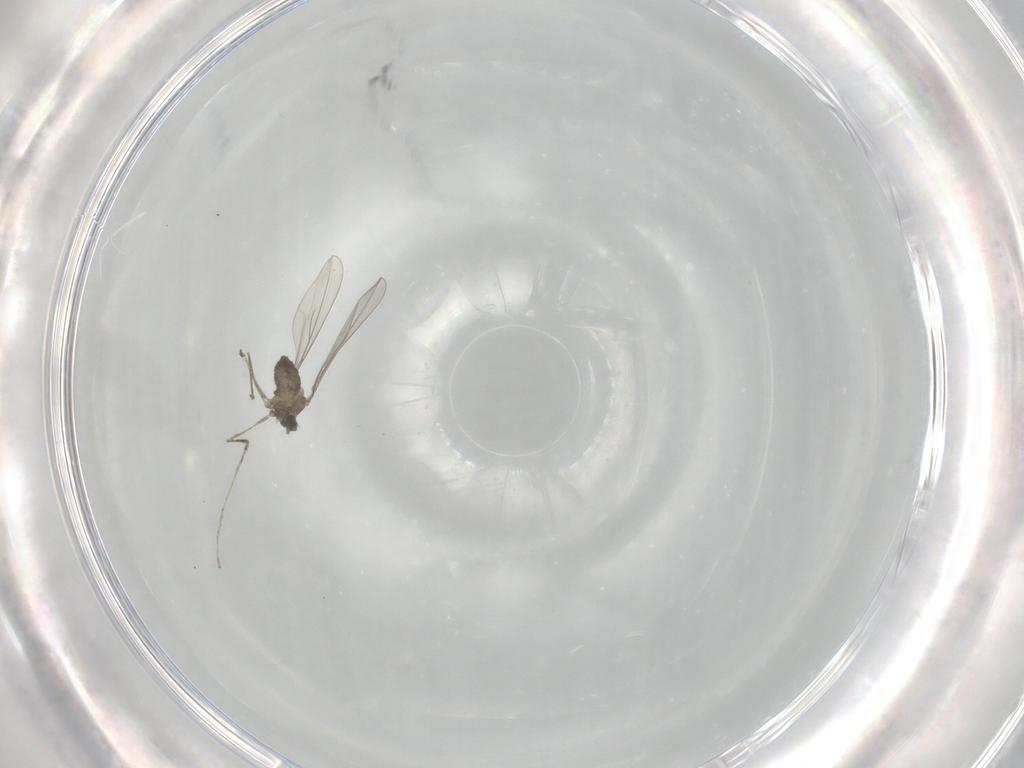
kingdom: Animalia
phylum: Arthropoda
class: Insecta
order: Diptera
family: Cecidomyiidae
